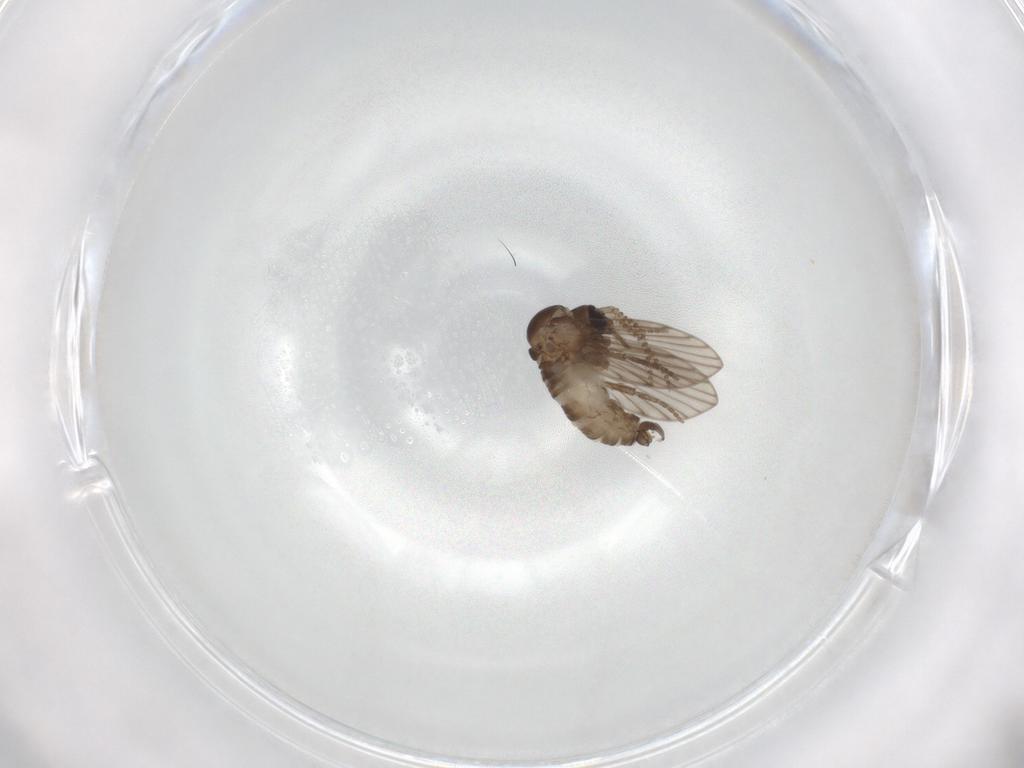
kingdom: Animalia
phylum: Arthropoda
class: Insecta
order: Diptera
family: Psychodidae
